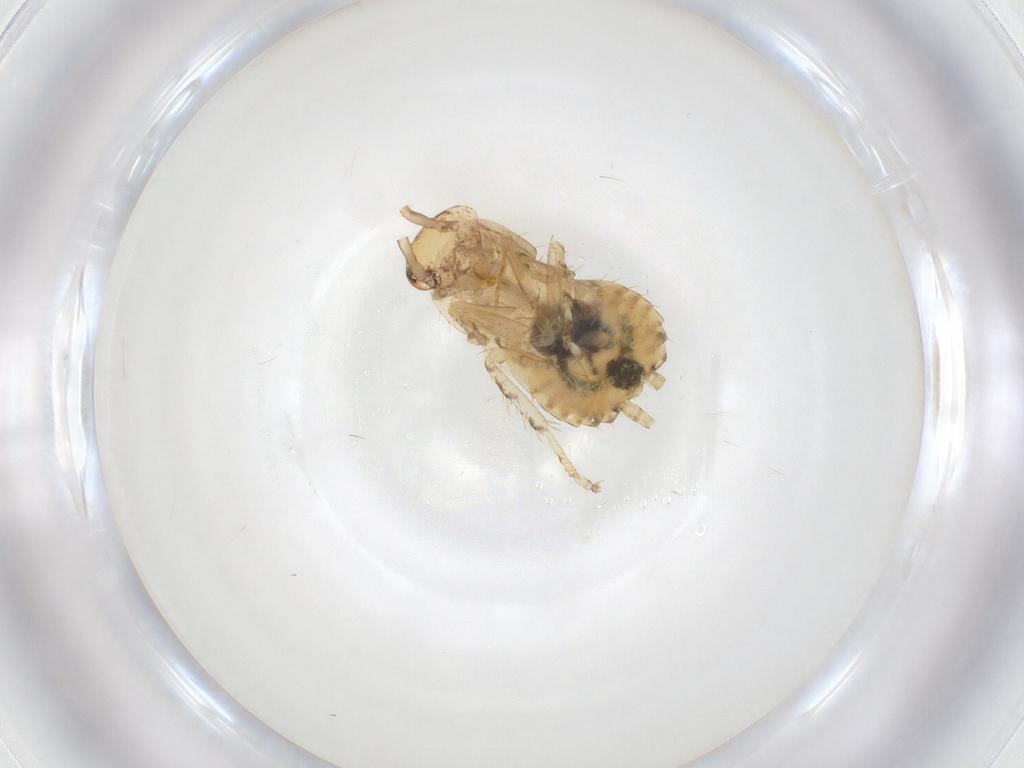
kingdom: Animalia
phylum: Arthropoda
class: Insecta
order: Blattodea
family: Ectobiidae
